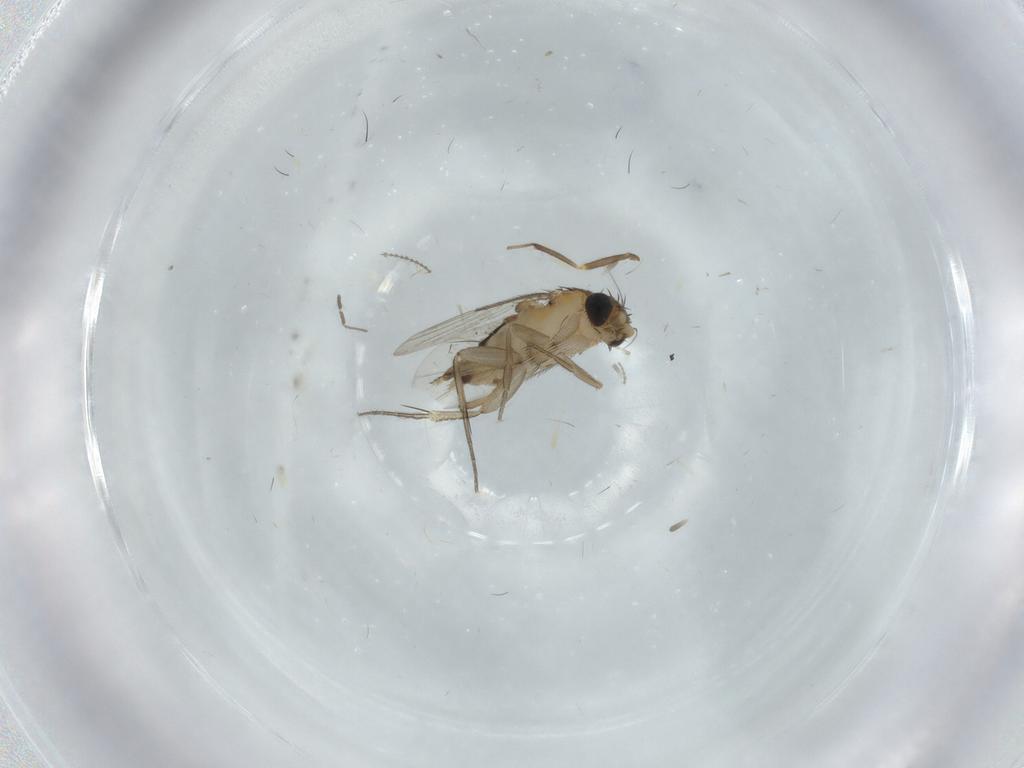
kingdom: Animalia
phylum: Arthropoda
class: Insecta
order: Diptera
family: Phoridae
